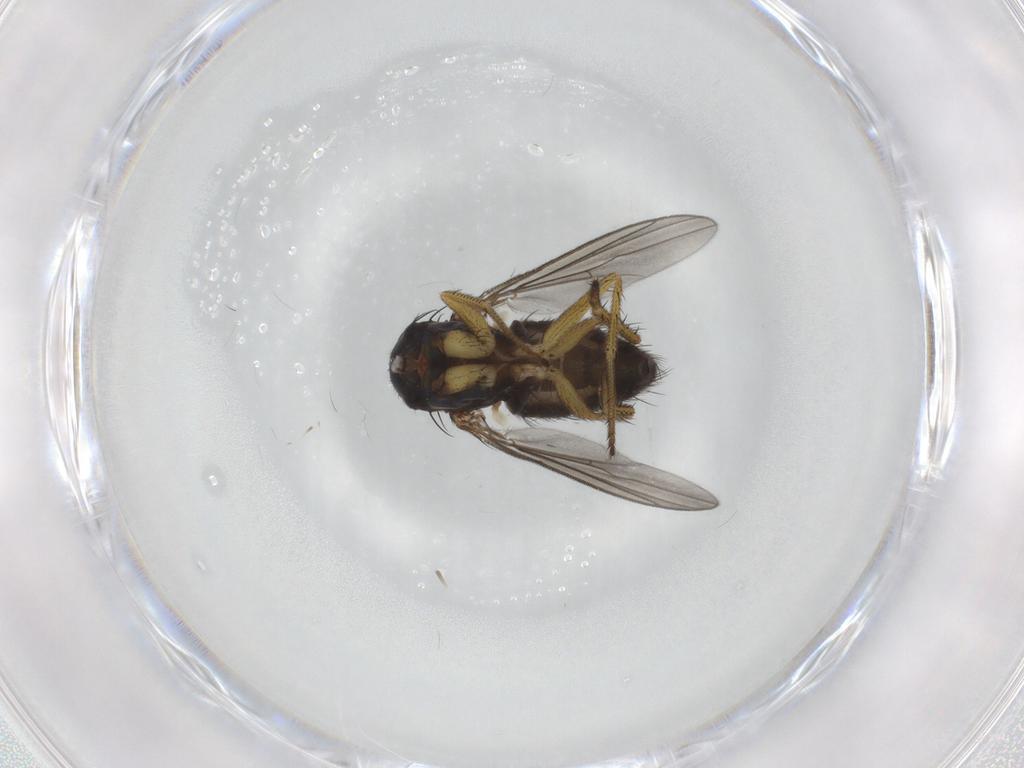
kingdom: Animalia
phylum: Arthropoda
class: Insecta
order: Diptera
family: Dolichopodidae
